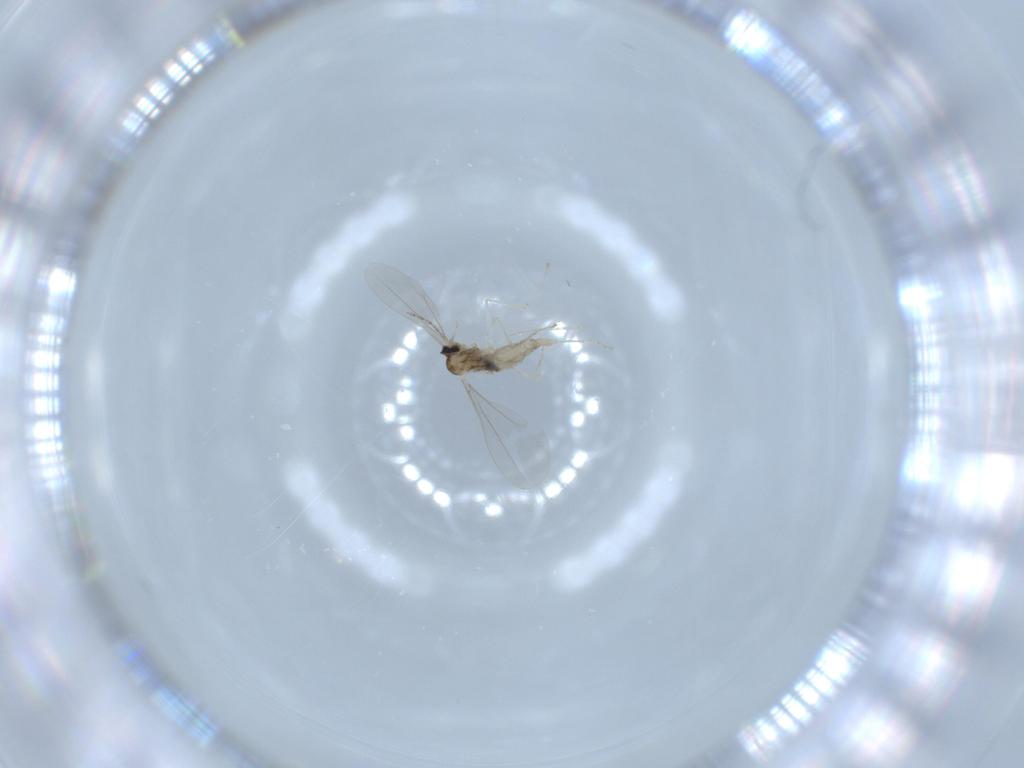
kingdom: Animalia
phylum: Arthropoda
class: Insecta
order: Diptera
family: Cecidomyiidae
